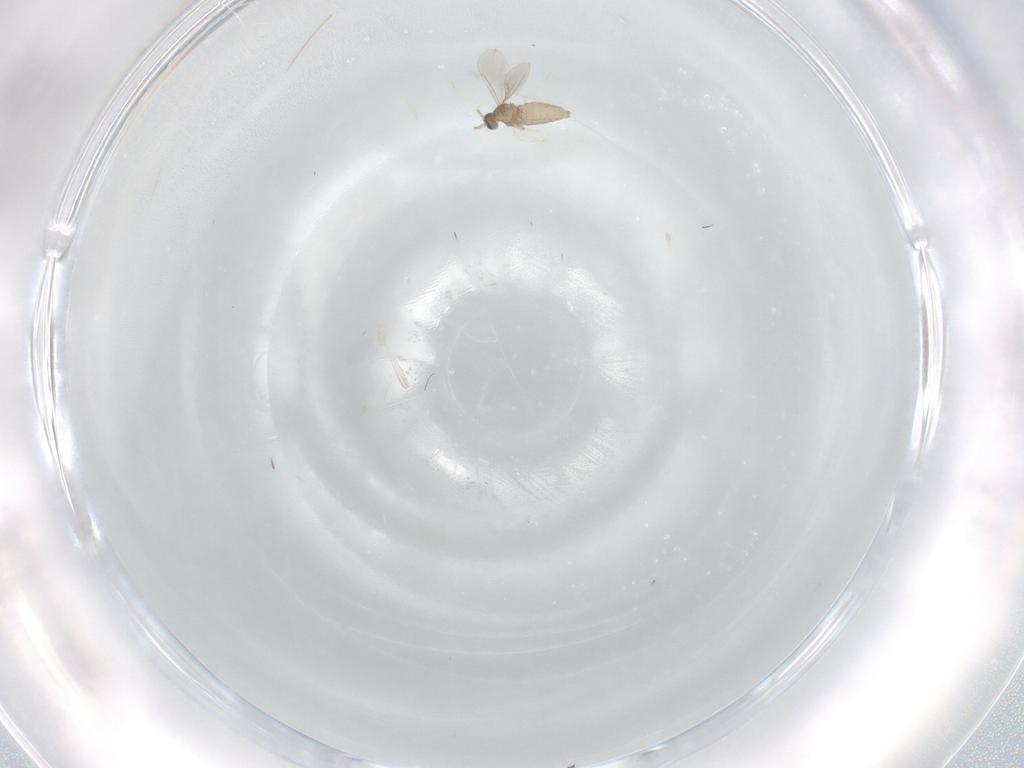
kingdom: Animalia
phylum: Arthropoda
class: Insecta
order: Diptera
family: Chironomidae
